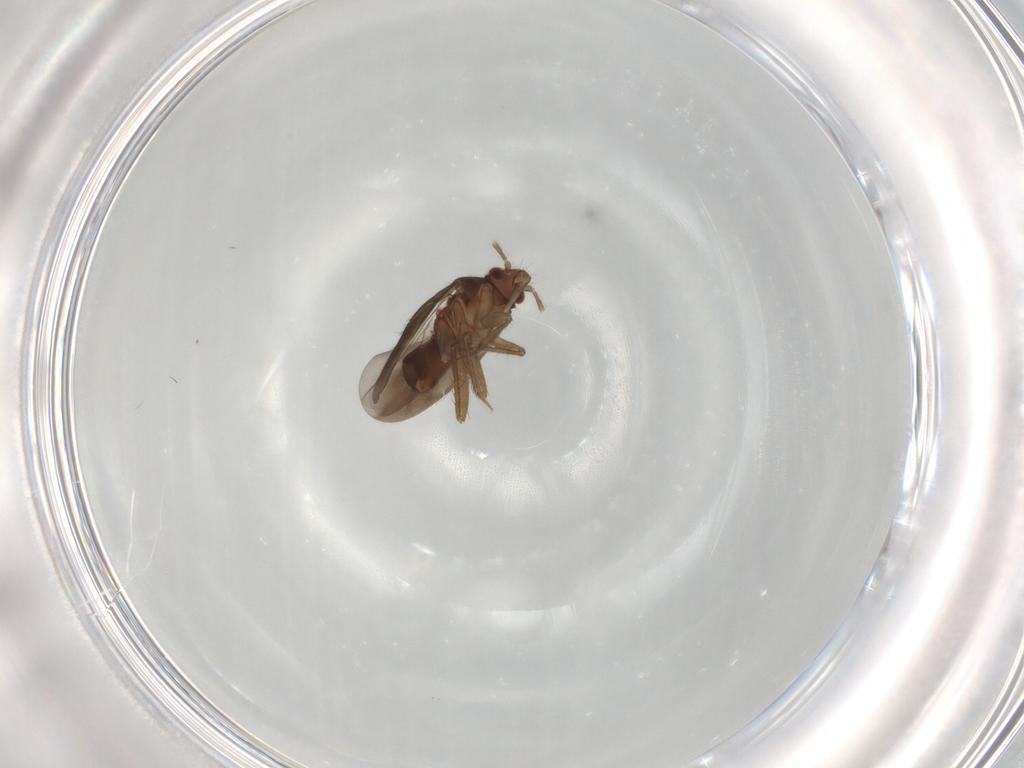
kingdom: Animalia
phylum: Arthropoda
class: Insecta
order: Hemiptera
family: Ceratocombidae
